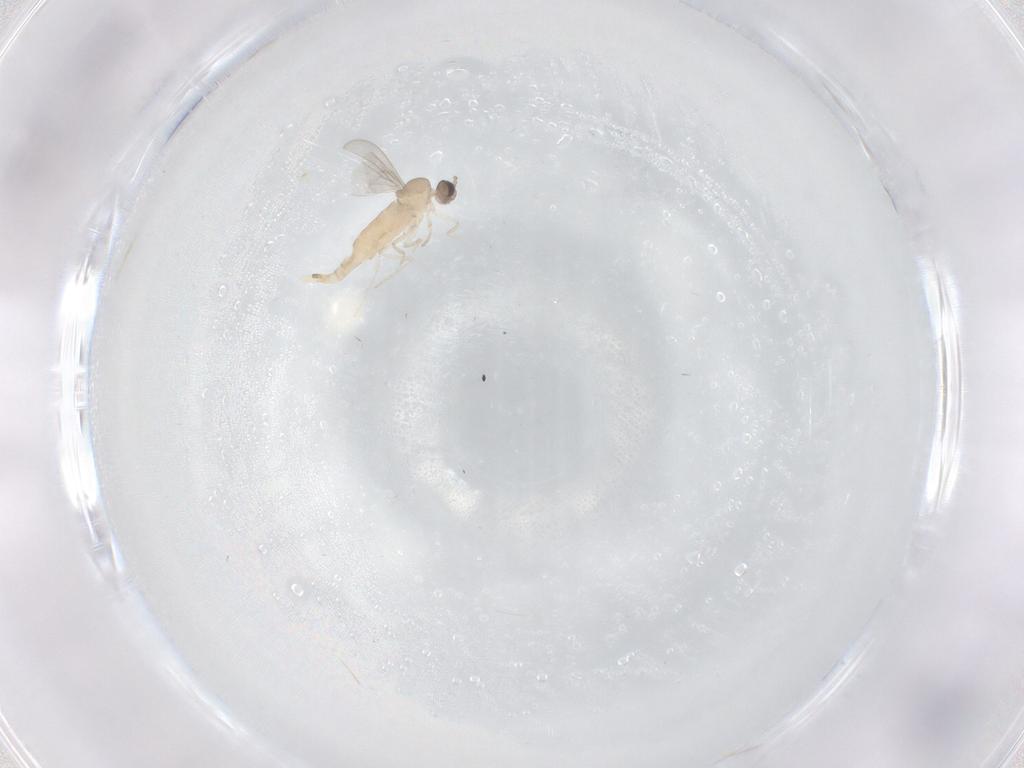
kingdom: Animalia
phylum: Arthropoda
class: Insecta
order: Diptera
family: Cecidomyiidae
